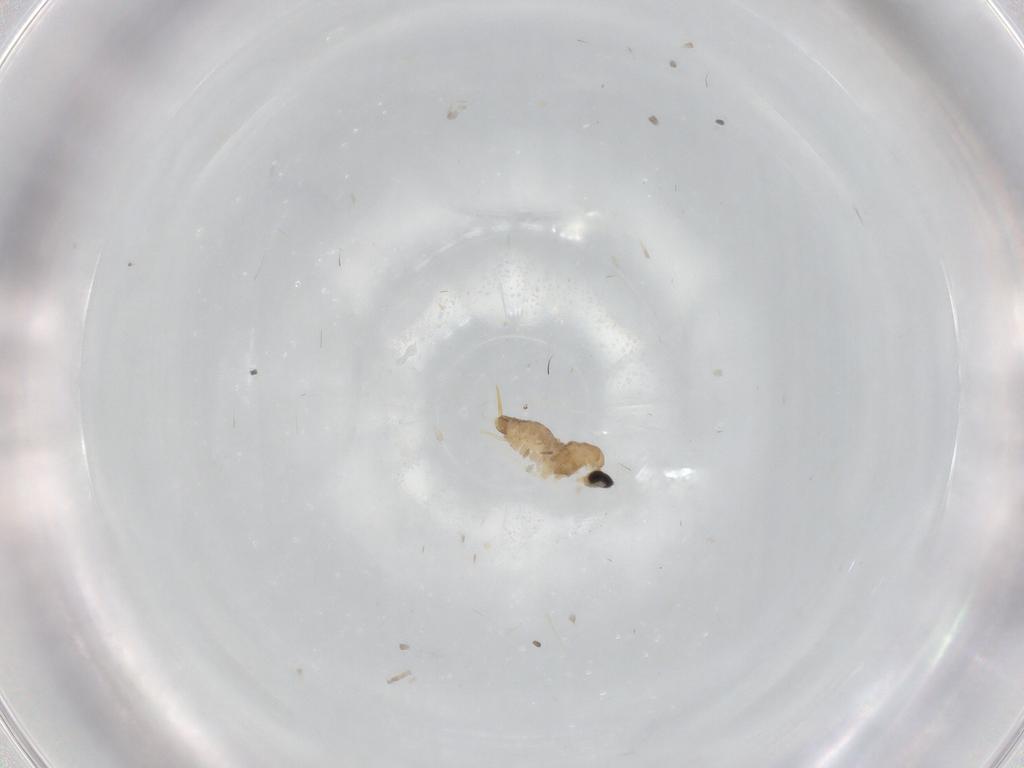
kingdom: Animalia
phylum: Arthropoda
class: Insecta
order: Diptera
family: Cecidomyiidae
